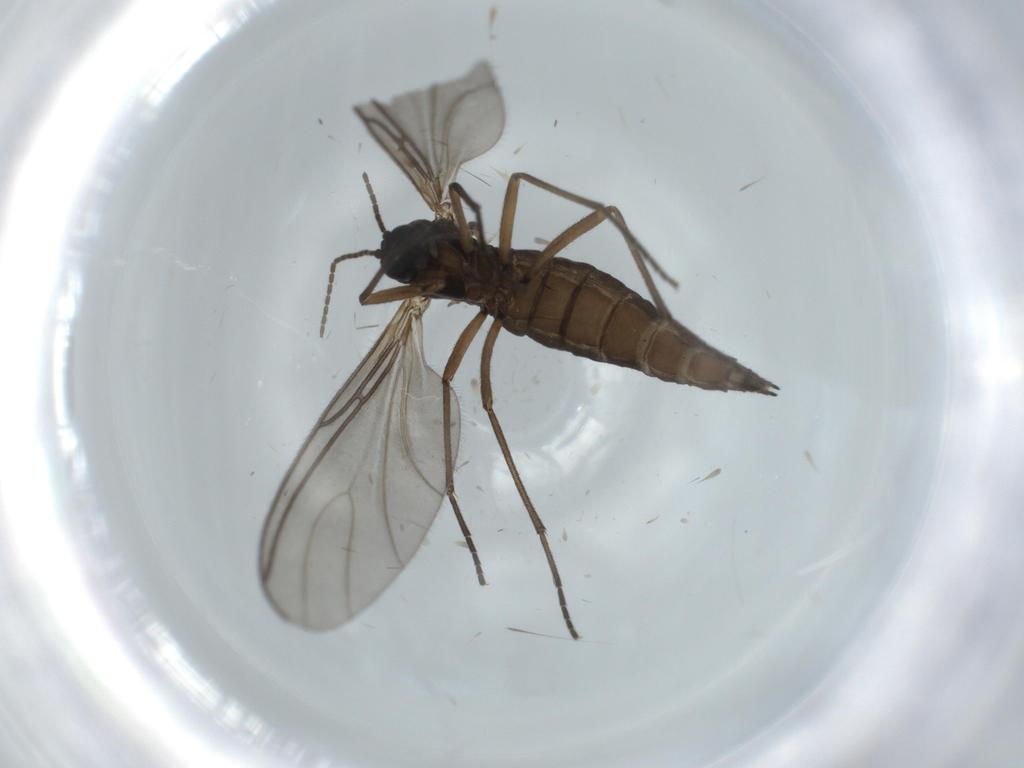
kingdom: Animalia
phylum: Arthropoda
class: Insecta
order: Diptera
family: Sciaridae
